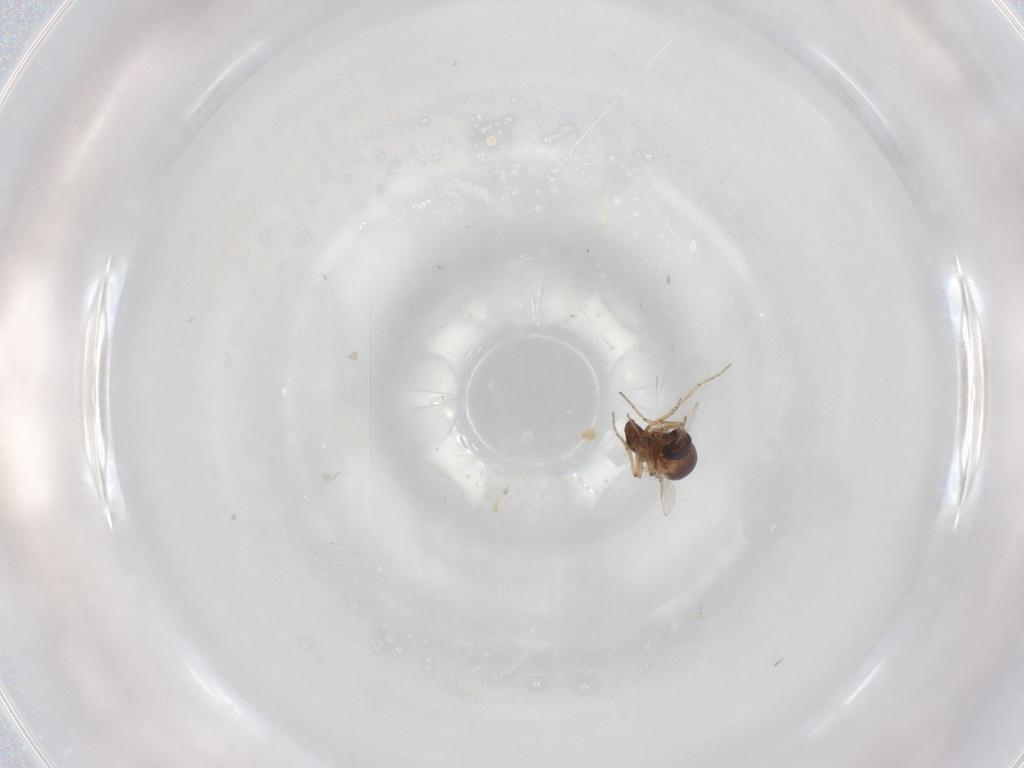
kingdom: Animalia
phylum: Arthropoda
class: Insecta
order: Diptera
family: Ceratopogonidae
